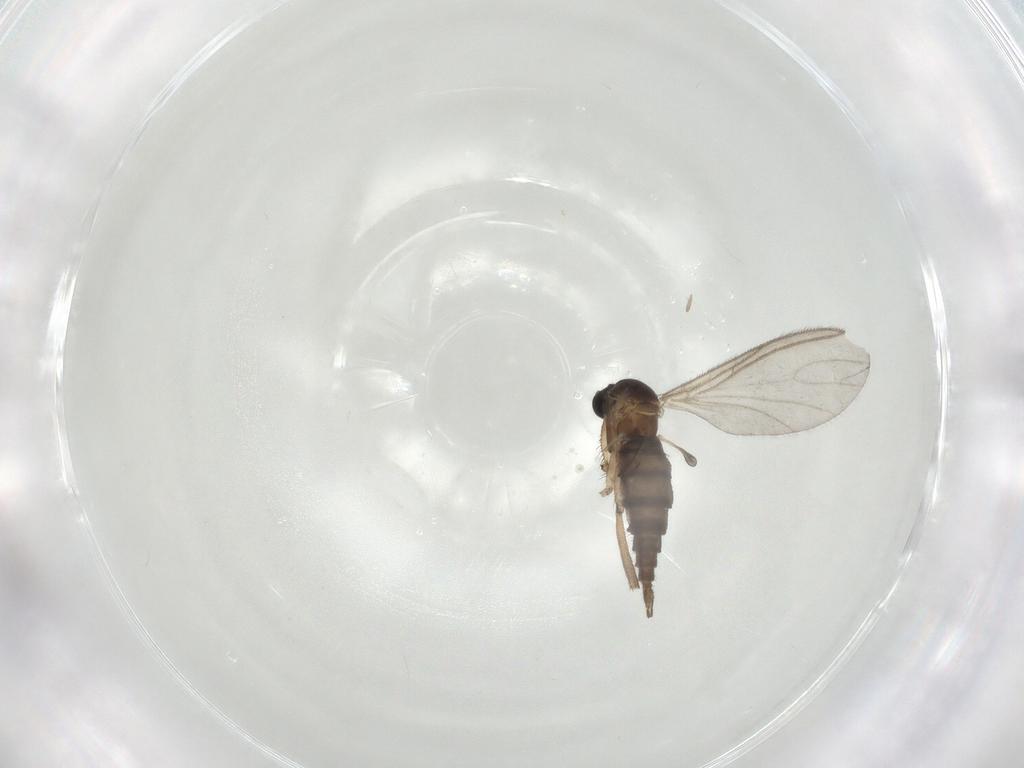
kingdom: Animalia
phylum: Arthropoda
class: Insecta
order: Diptera
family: Sciaridae
